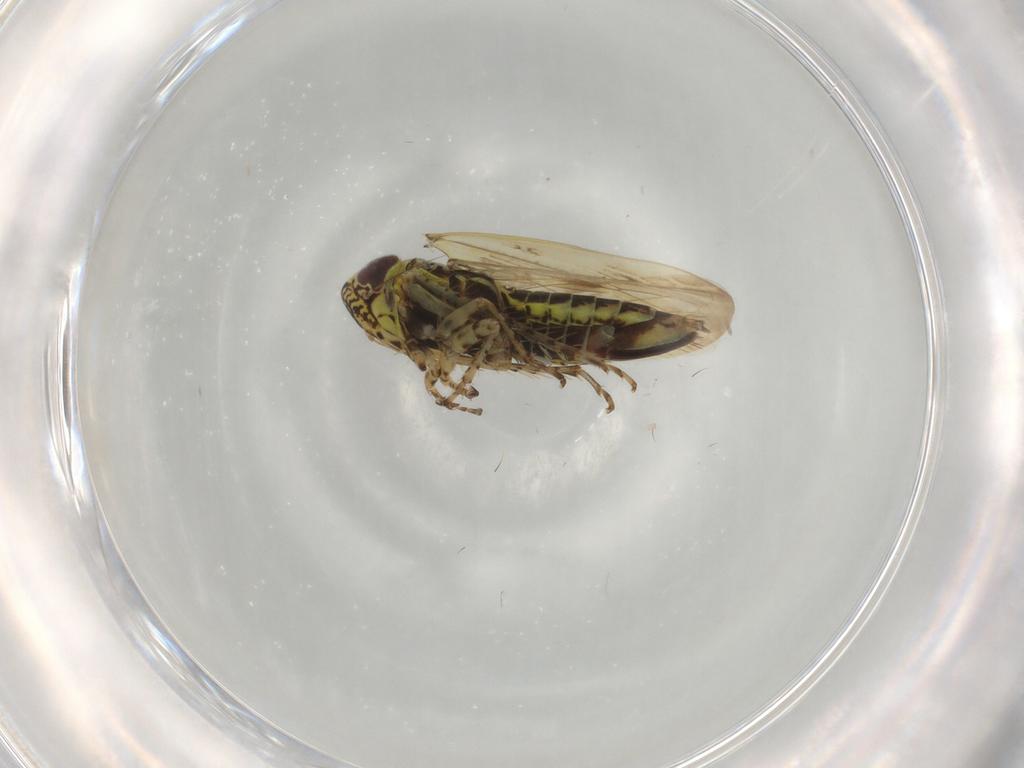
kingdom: Animalia
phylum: Arthropoda
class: Insecta
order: Hemiptera
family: Cicadellidae
